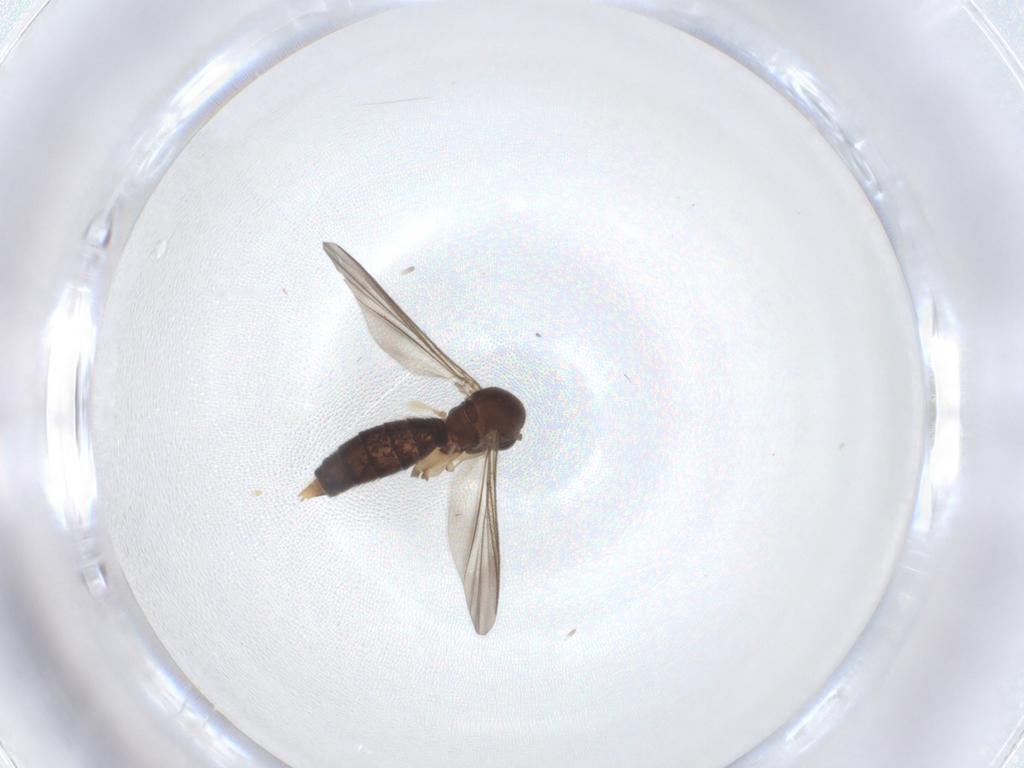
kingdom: Animalia
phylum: Arthropoda
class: Insecta
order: Diptera
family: Mycetophilidae
